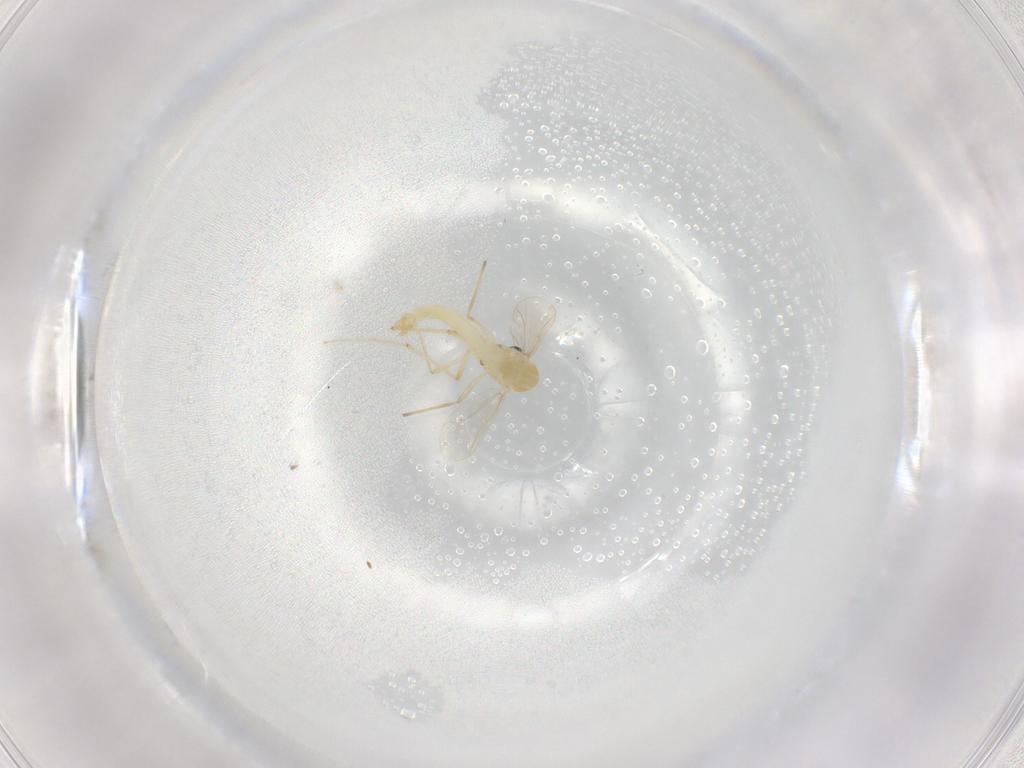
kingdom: Animalia
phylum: Arthropoda
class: Insecta
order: Diptera
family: Chironomidae
